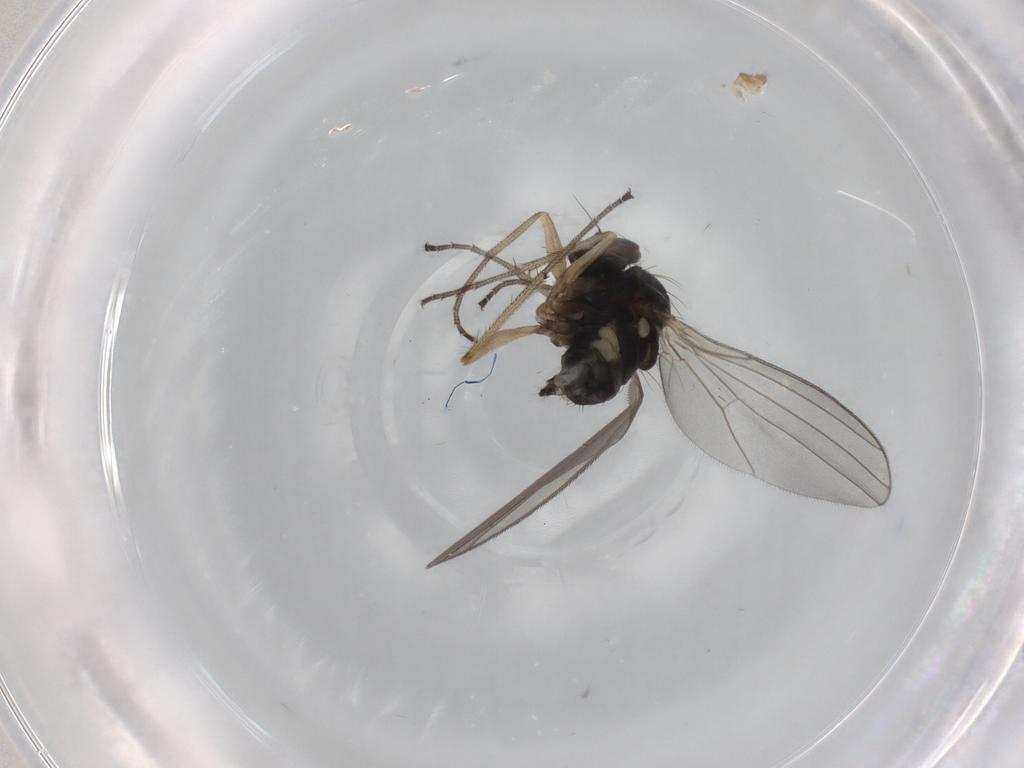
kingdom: Animalia
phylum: Arthropoda
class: Insecta
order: Diptera
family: Dolichopodidae
